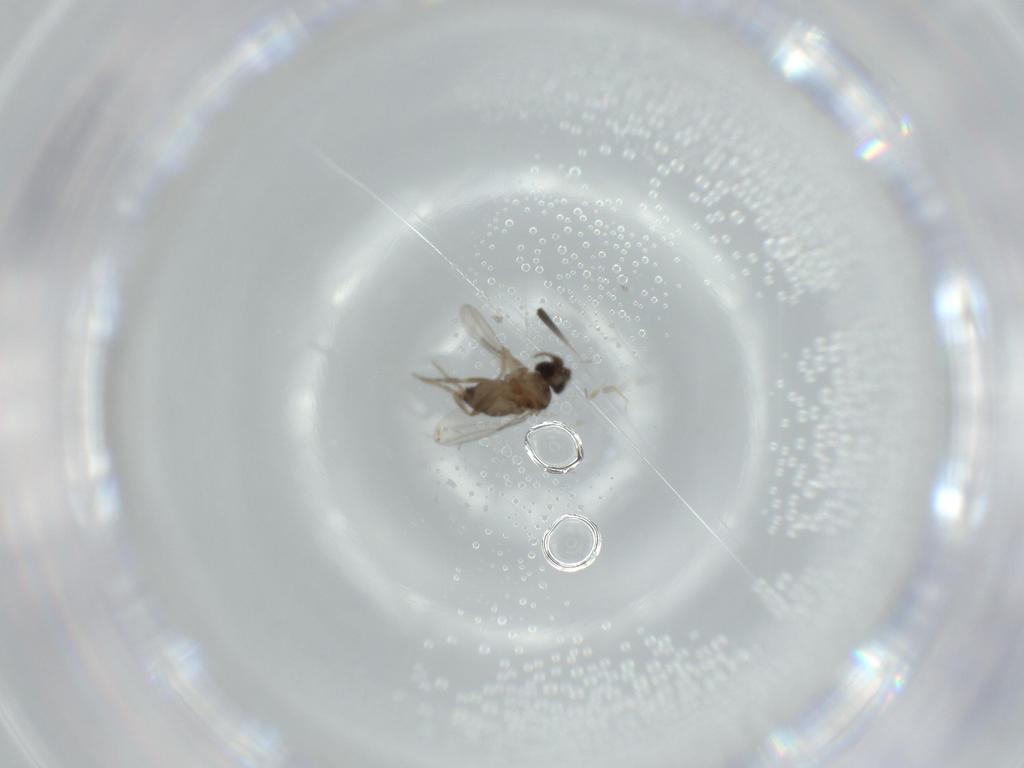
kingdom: Animalia
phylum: Arthropoda
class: Insecta
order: Diptera
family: Phoridae
